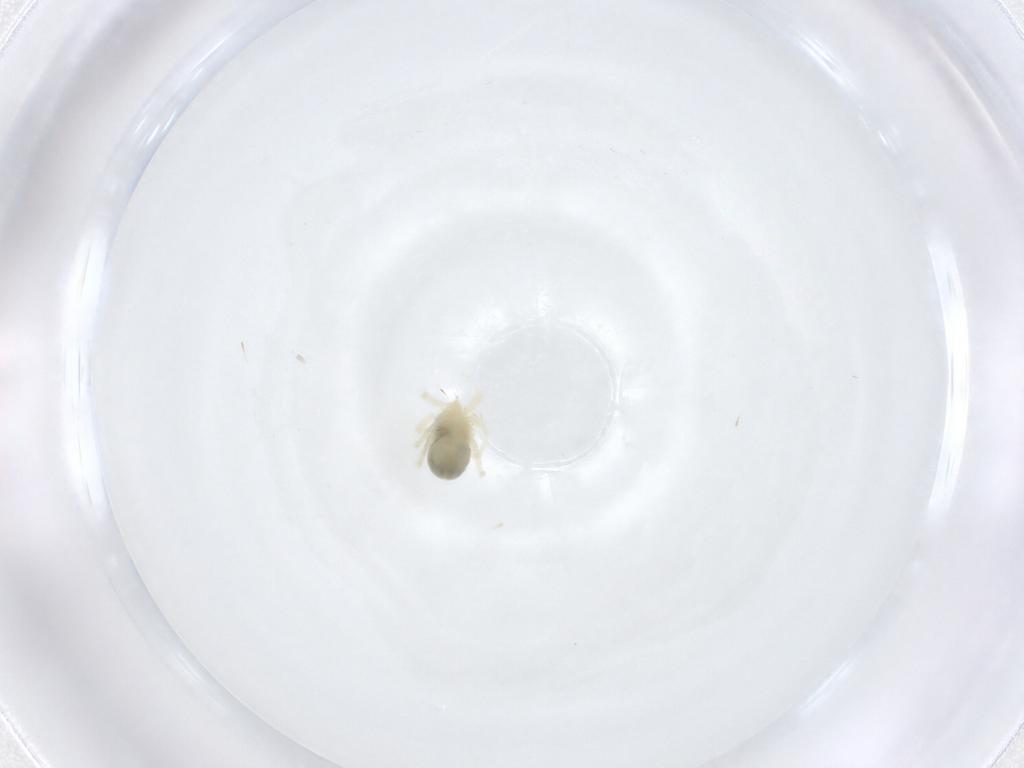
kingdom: Animalia
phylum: Arthropoda
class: Arachnida
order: Trombidiformes
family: Anystidae
